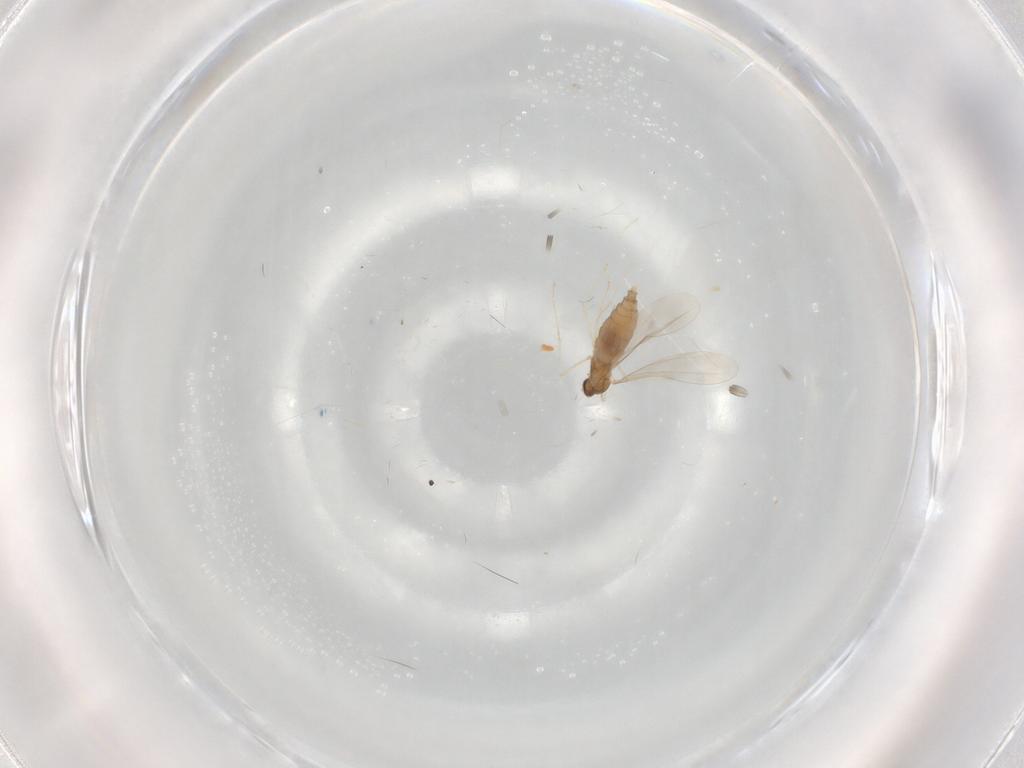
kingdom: Animalia
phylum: Arthropoda
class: Insecta
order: Diptera
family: Cecidomyiidae
